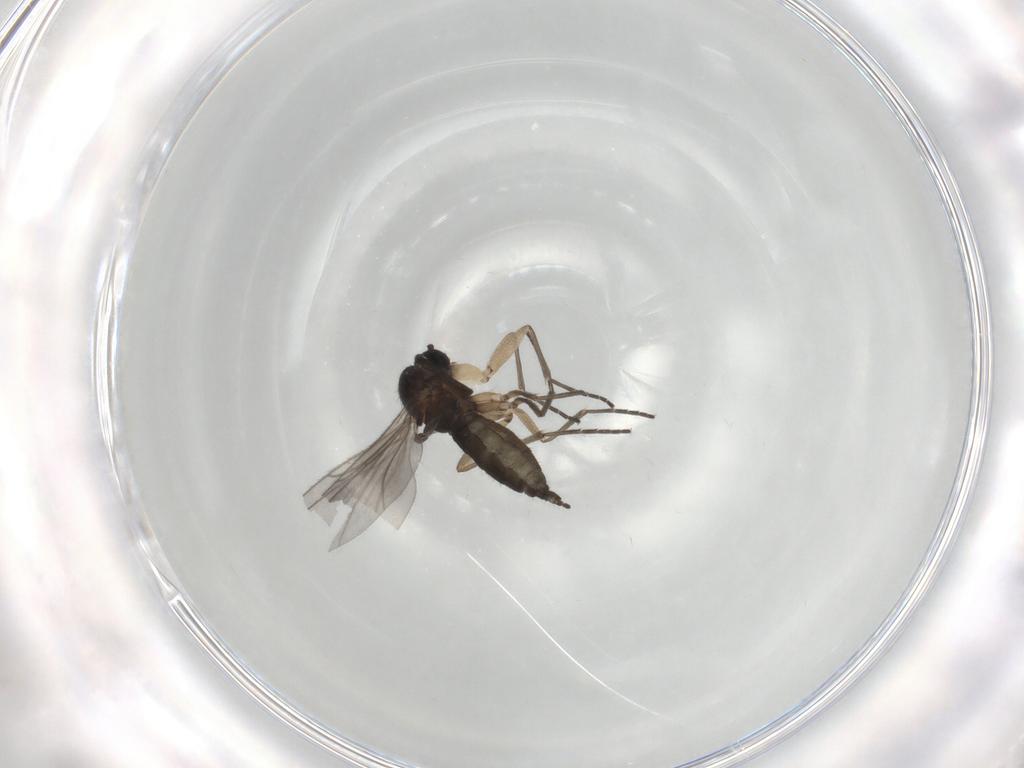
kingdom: Animalia
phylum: Arthropoda
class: Insecta
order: Diptera
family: Sciaridae
